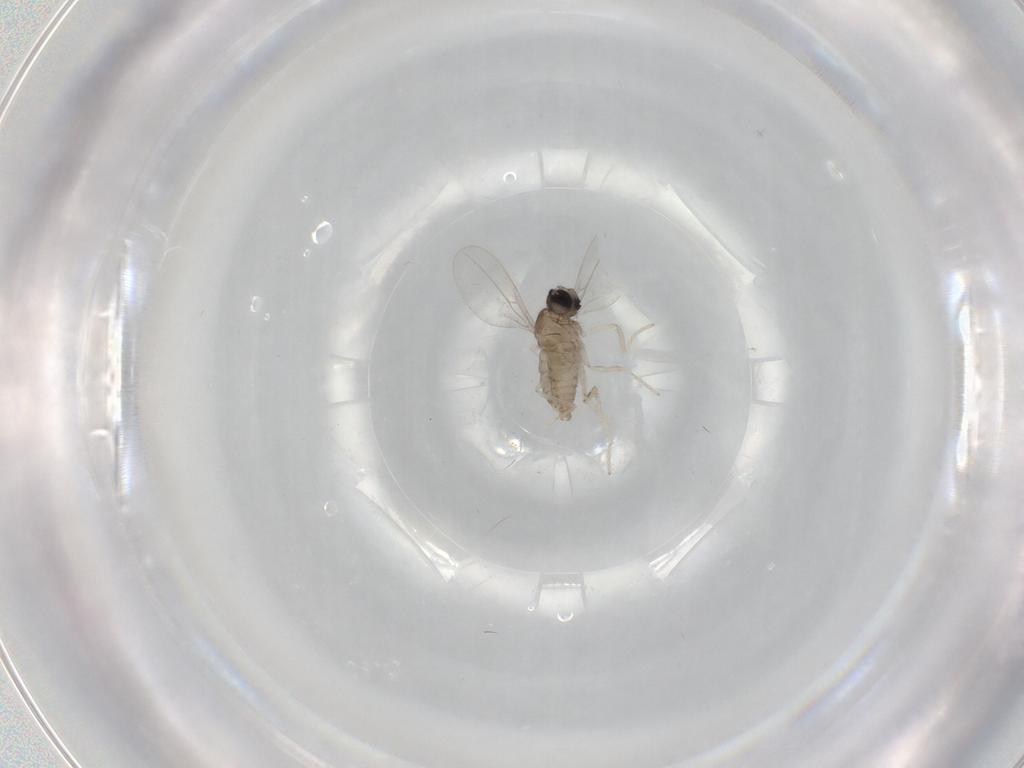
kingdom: Animalia
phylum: Arthropoda
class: Insecta
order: Diptera
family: Cecidomyiidae
